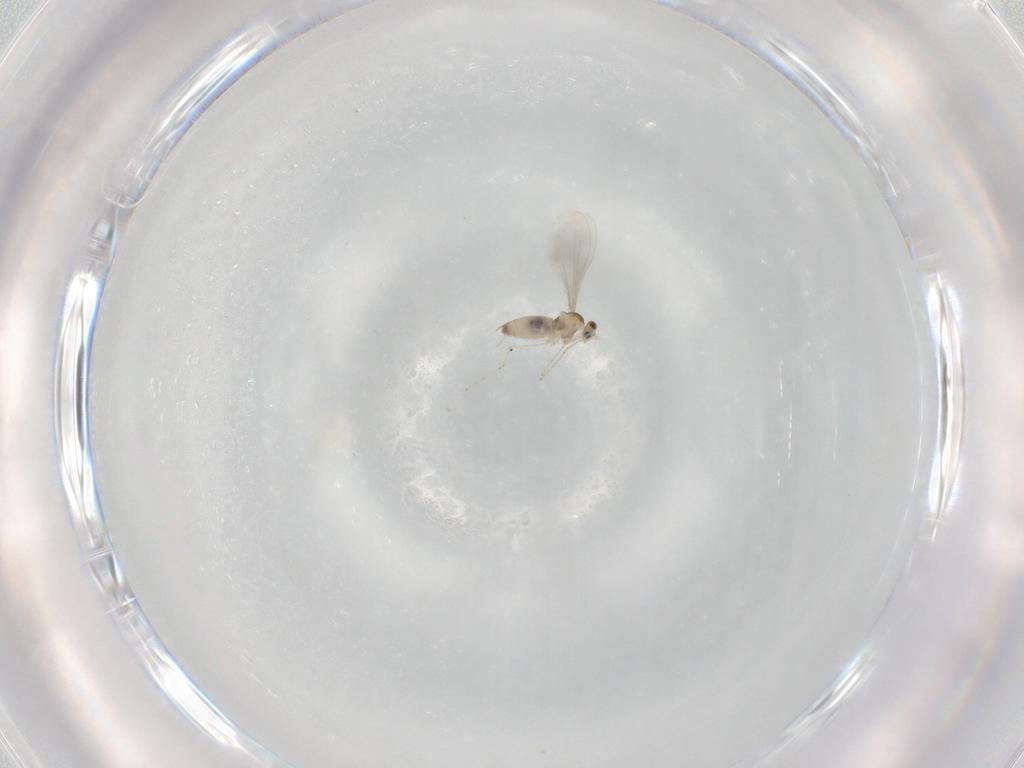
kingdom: Animalia
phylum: Arthropoda
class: Insecta
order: Diptera
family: Cecidomyiidae
